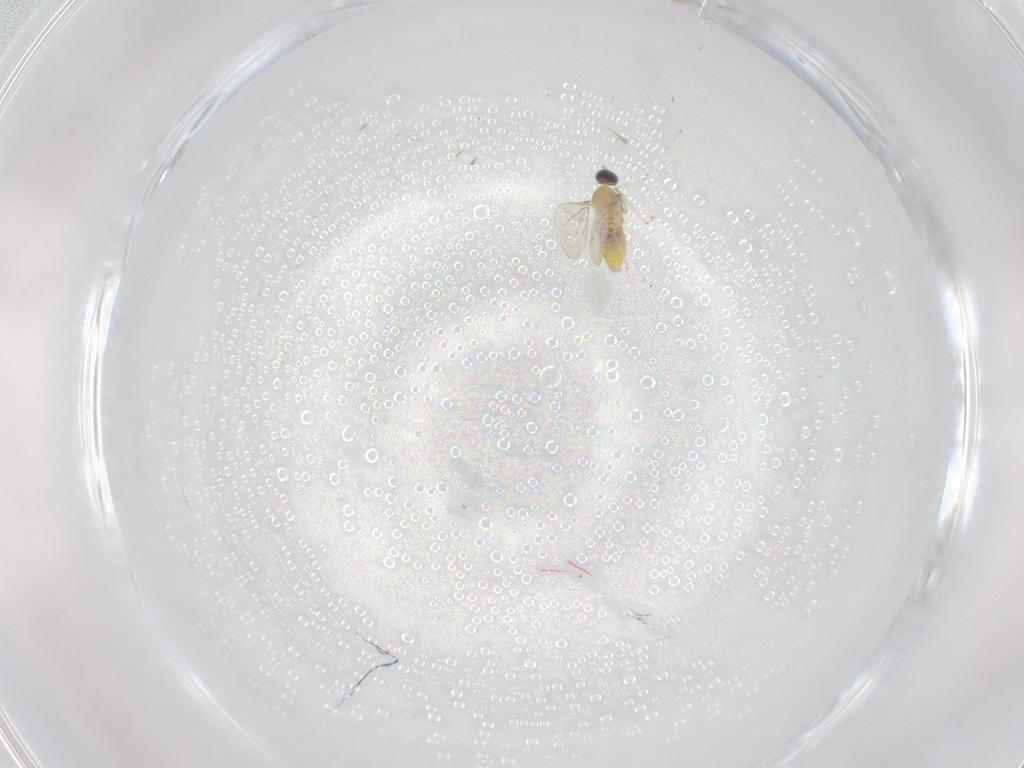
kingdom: Animalia
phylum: Arthropoda
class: Insecta
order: Diptera
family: Cecidomyiidae
